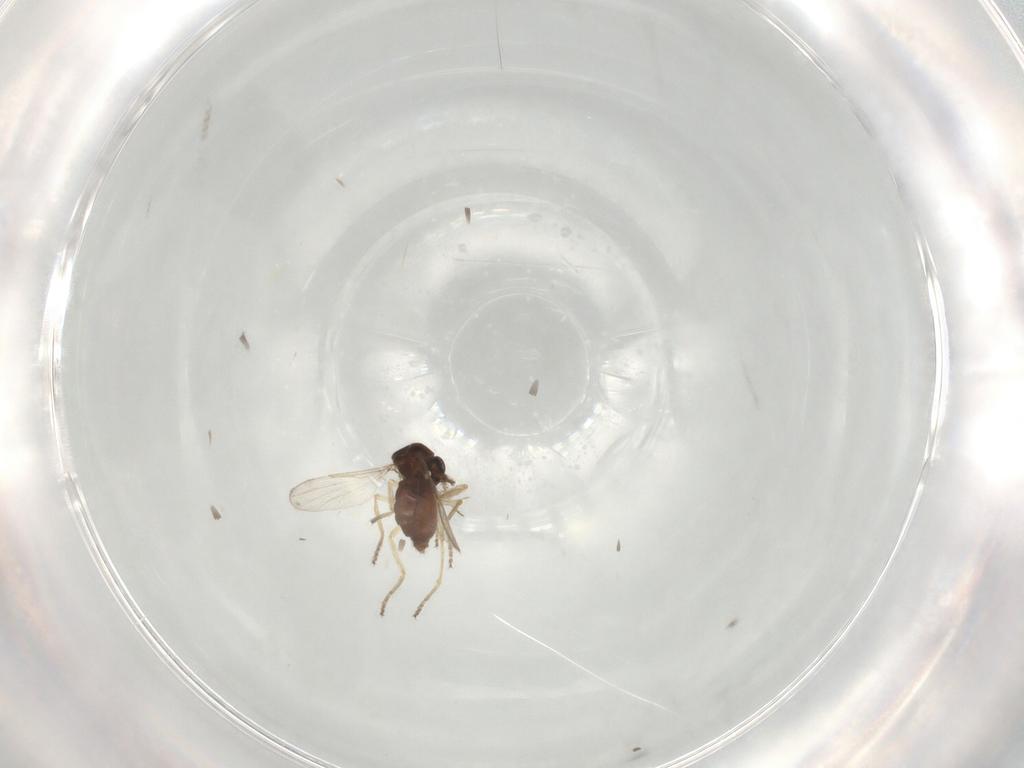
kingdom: Animalia
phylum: Arthropoda
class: Insecta
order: Diptera
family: Ceratopogonidae
